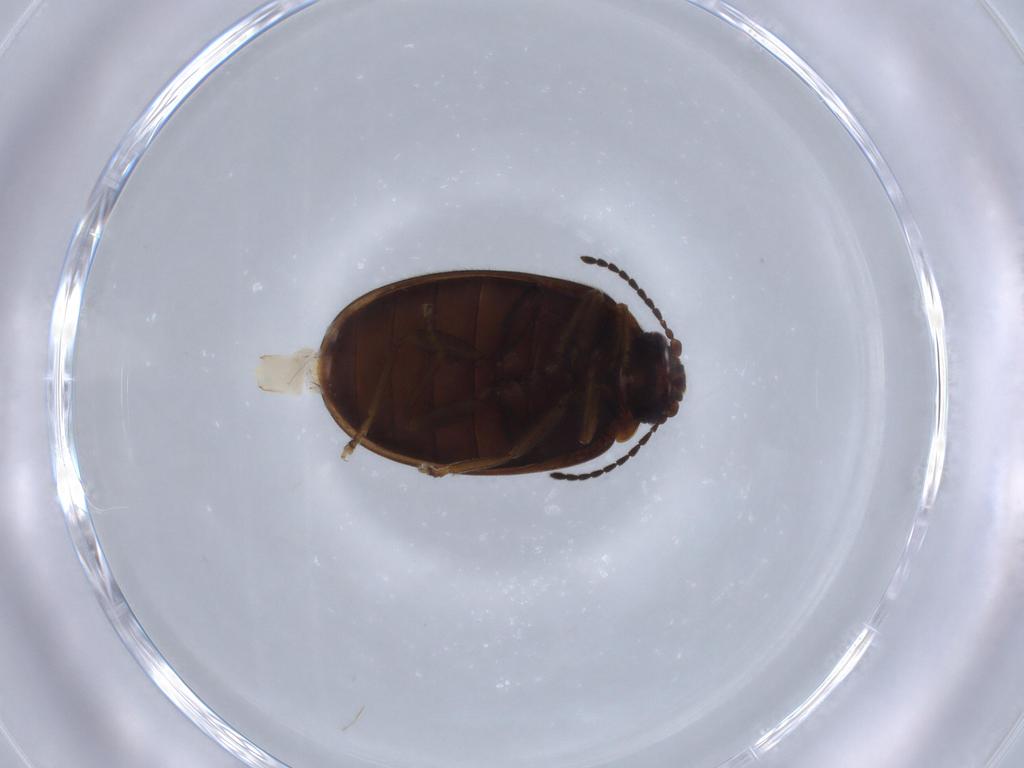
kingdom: Animalia
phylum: Arthropoda
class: Insecta
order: Coleoptera
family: Scirtidae
